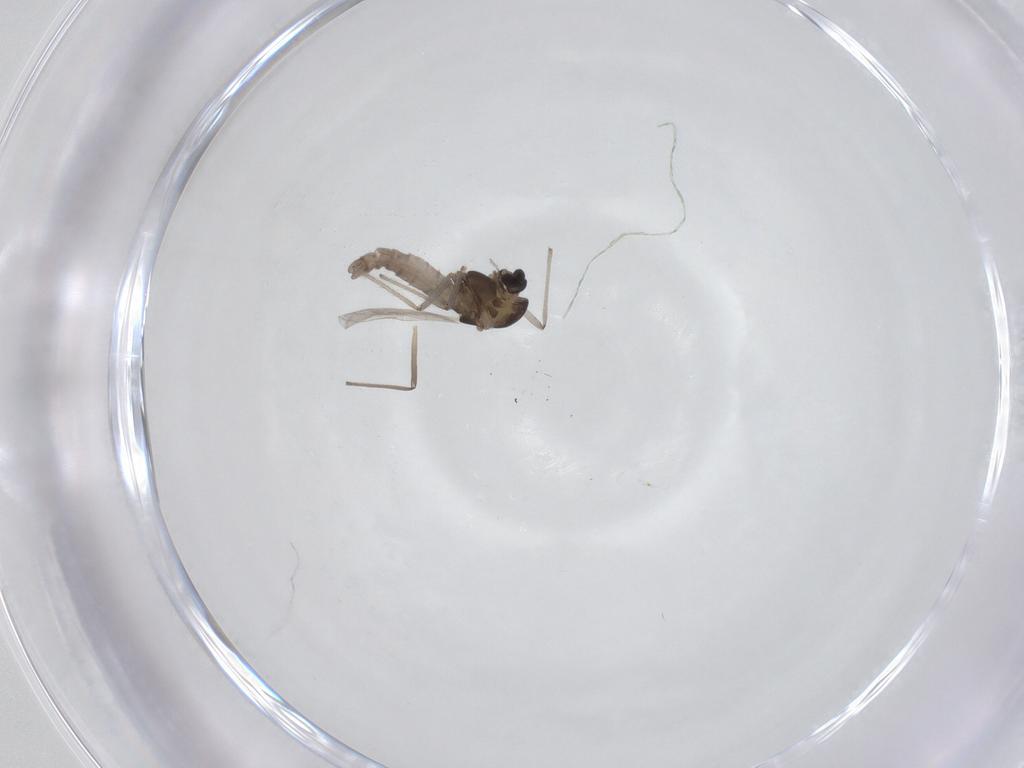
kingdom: Animalia
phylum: Arthropoda
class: Insecta
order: Diptera
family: Chironomidae
